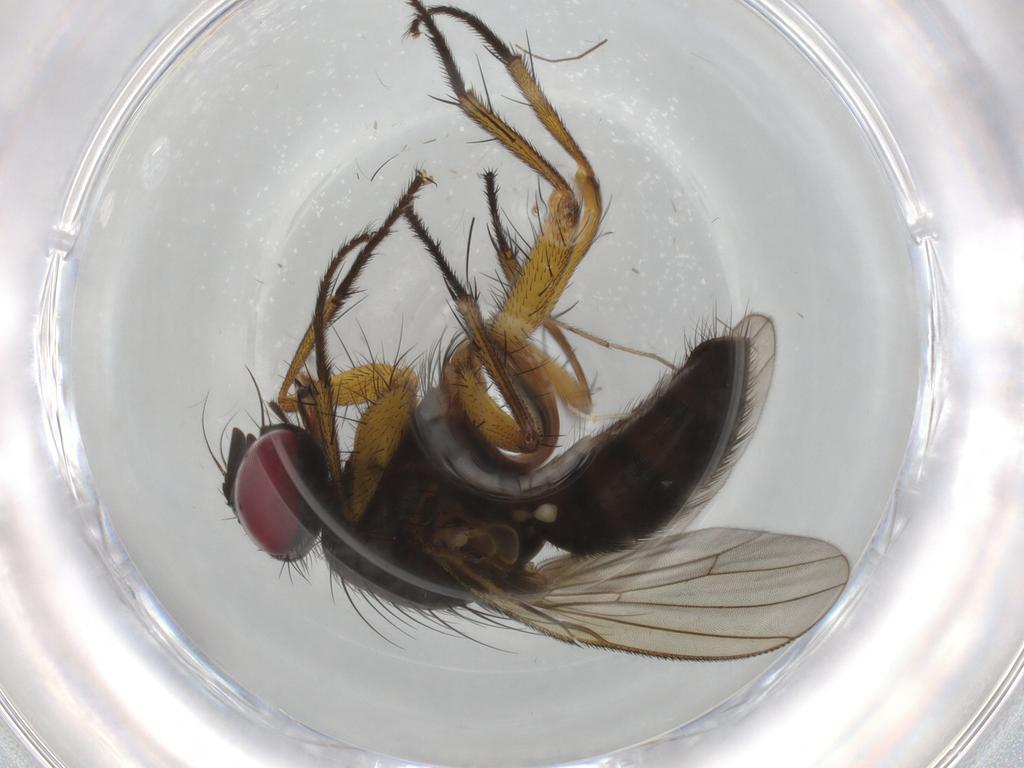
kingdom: Animalia
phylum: Arthropoda
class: Insecta
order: Diptera
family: Muscidae
